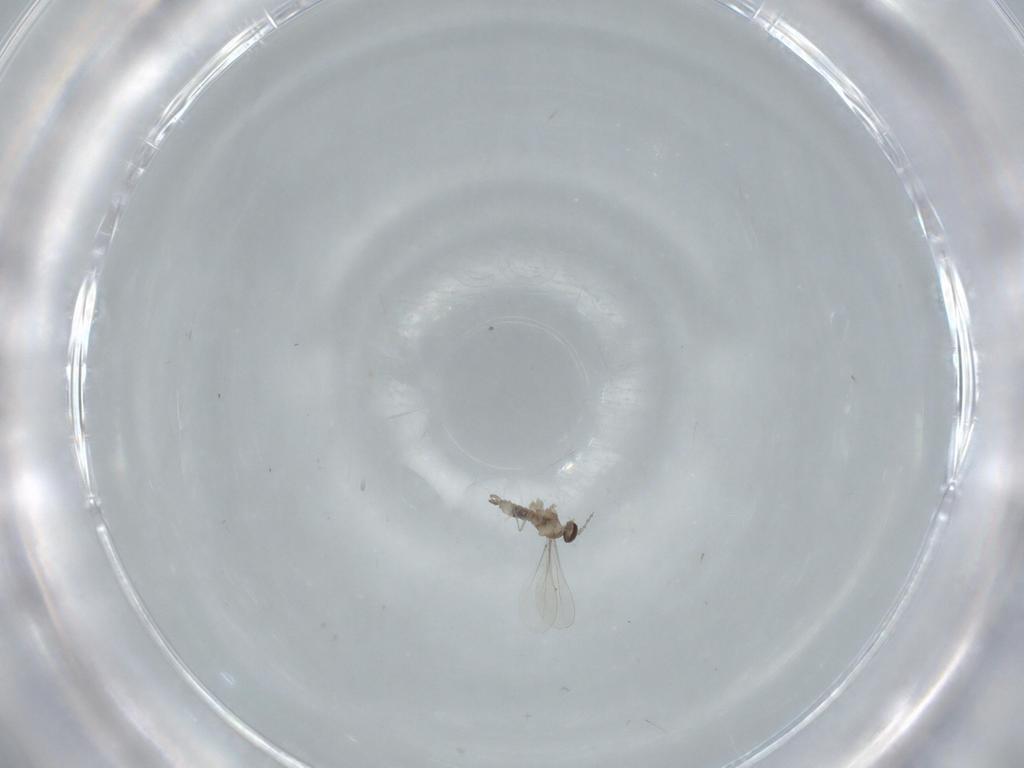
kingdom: Animalia
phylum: Arthropoda
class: Insecta
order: Diptera
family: Cecidomyiidae
